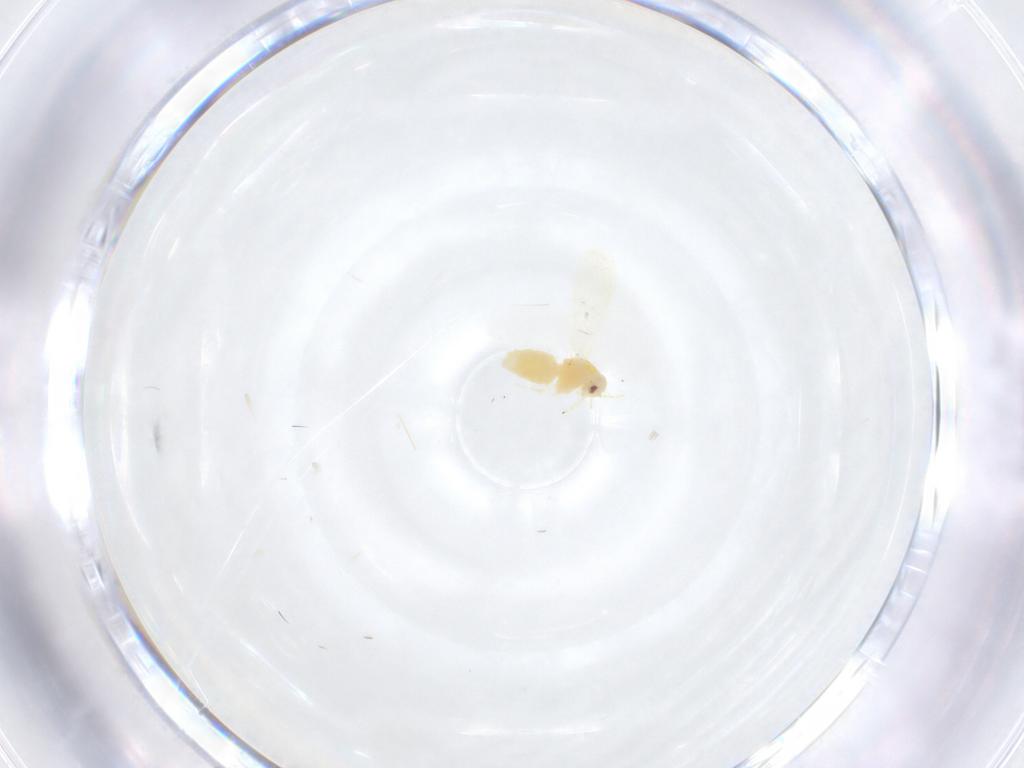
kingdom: Animalia
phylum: Arthropoda
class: Insecta
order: Hemiptera
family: Aleyrodidae
